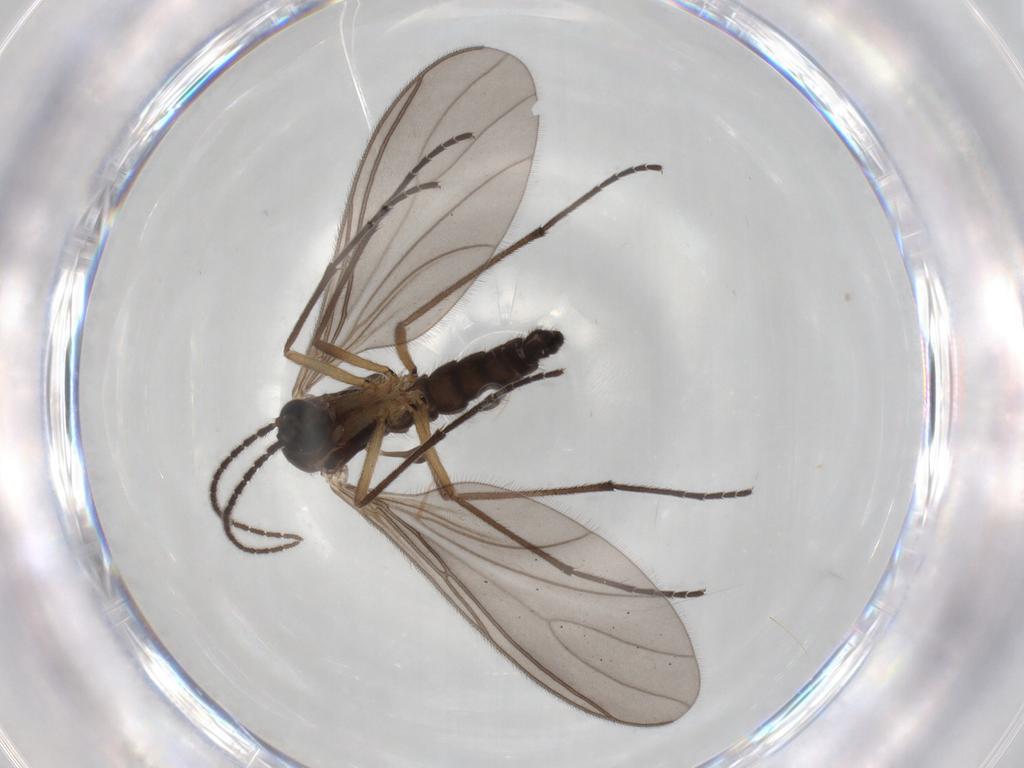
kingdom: Animalia
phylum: Arthropoda
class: Insecta
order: Diptera
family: Sciaridae
